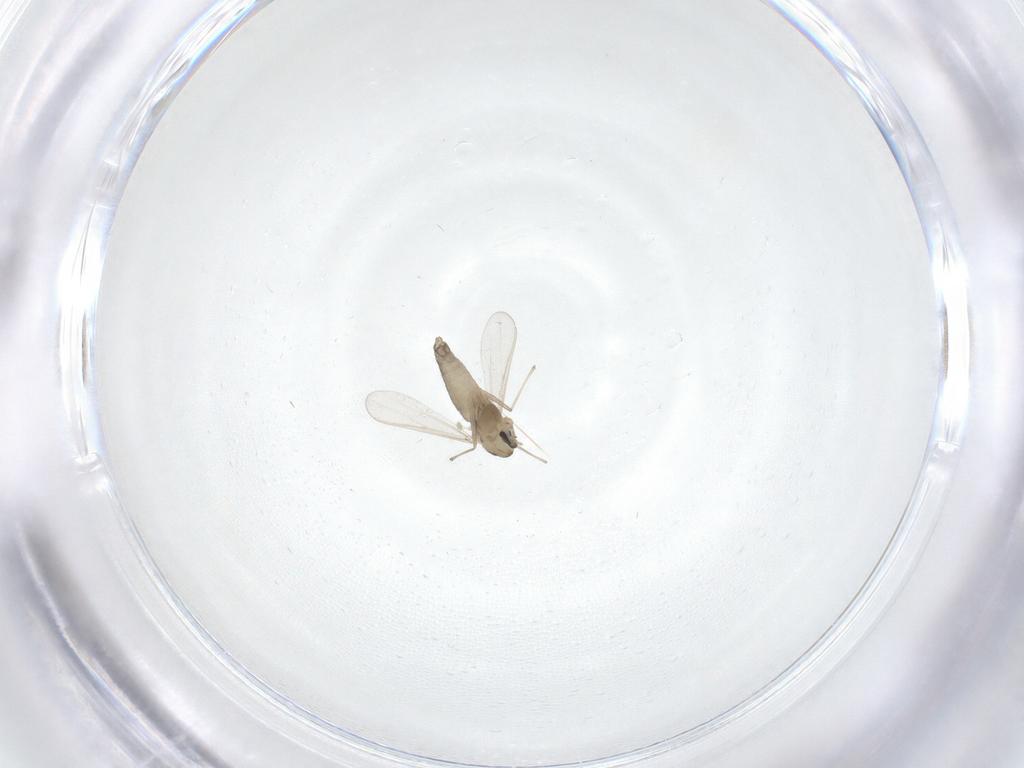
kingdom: Animalia
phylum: Arthropoda
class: Insecta
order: Diptera
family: Chironomidae
